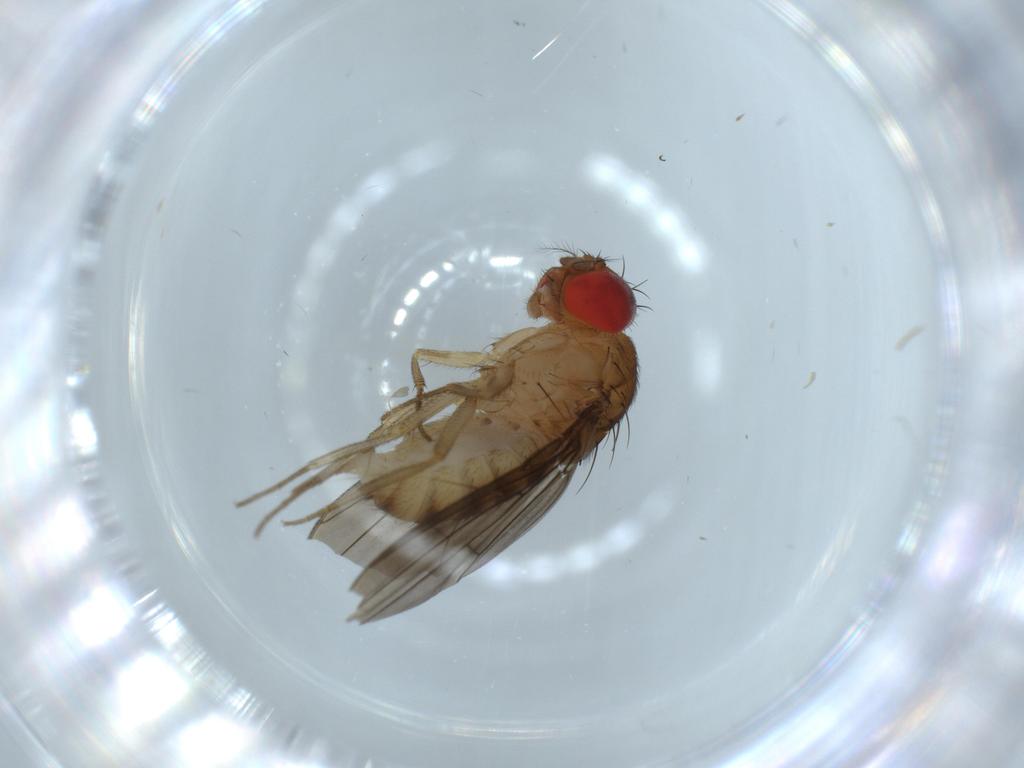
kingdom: Animalia
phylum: Arthropoda
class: Insecta
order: Diptera
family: Drosophilidae
